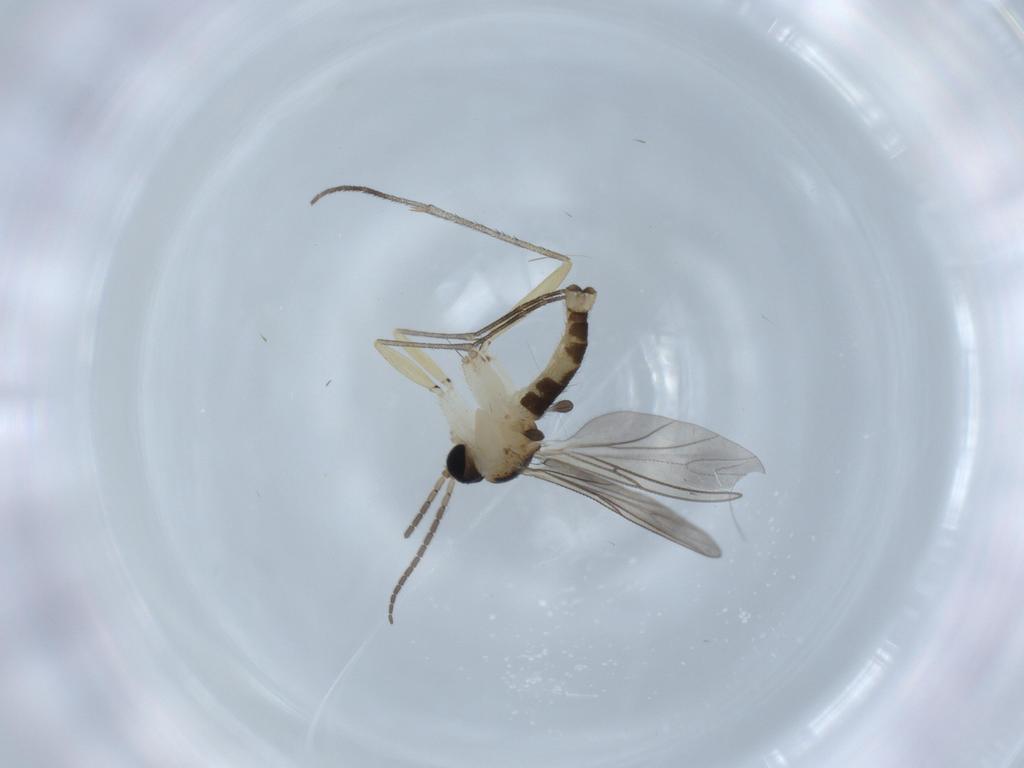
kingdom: Animalia
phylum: Arthropoda
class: Insecta
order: Diptera
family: Sciaridae
